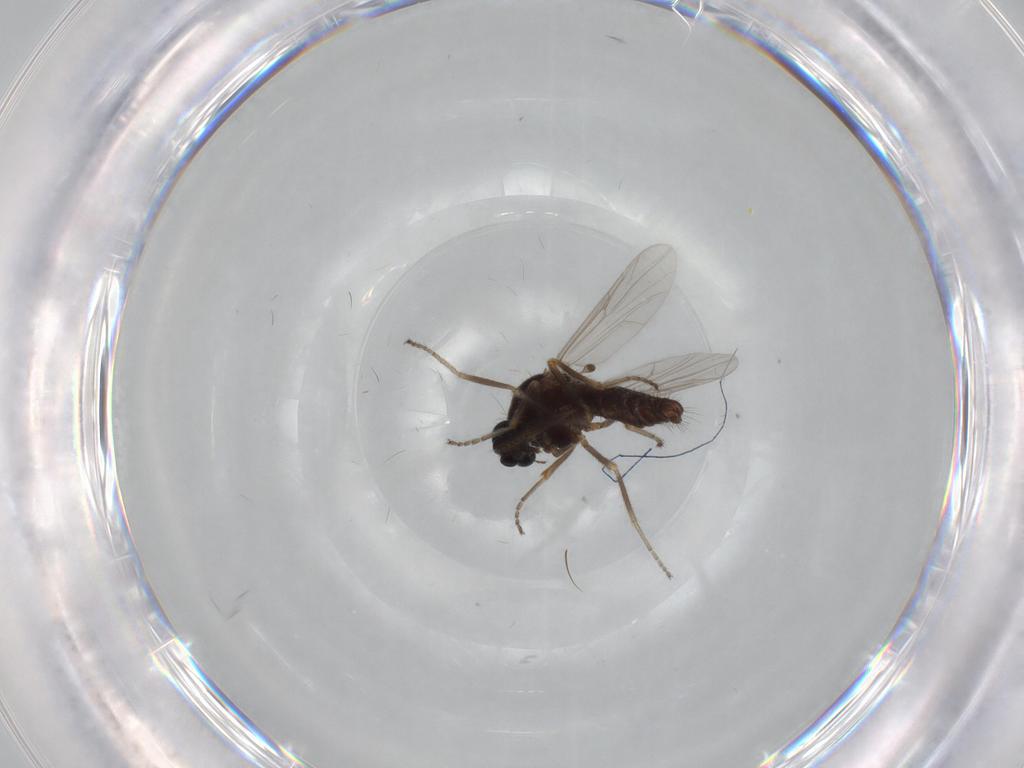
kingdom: Animalia
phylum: Arthropoda
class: Insecta
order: Diptera
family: Ceratopogonidae
